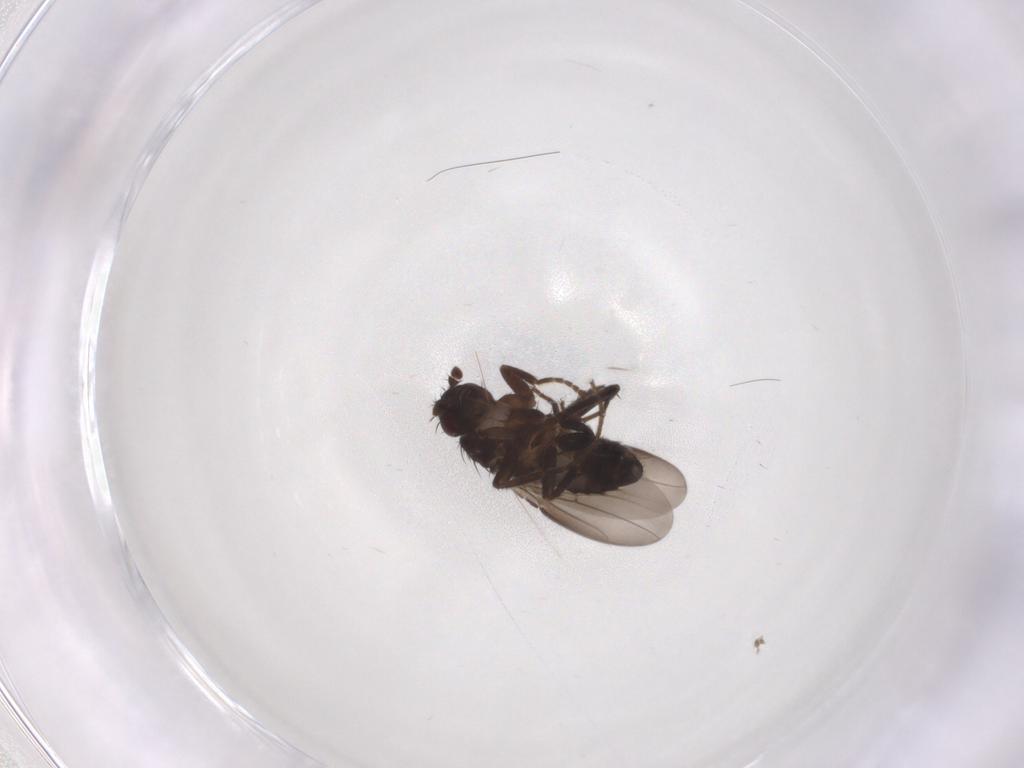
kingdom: Animalia
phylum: Arthropoda
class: Insecta
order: Diptera
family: Sphaeroceridae
